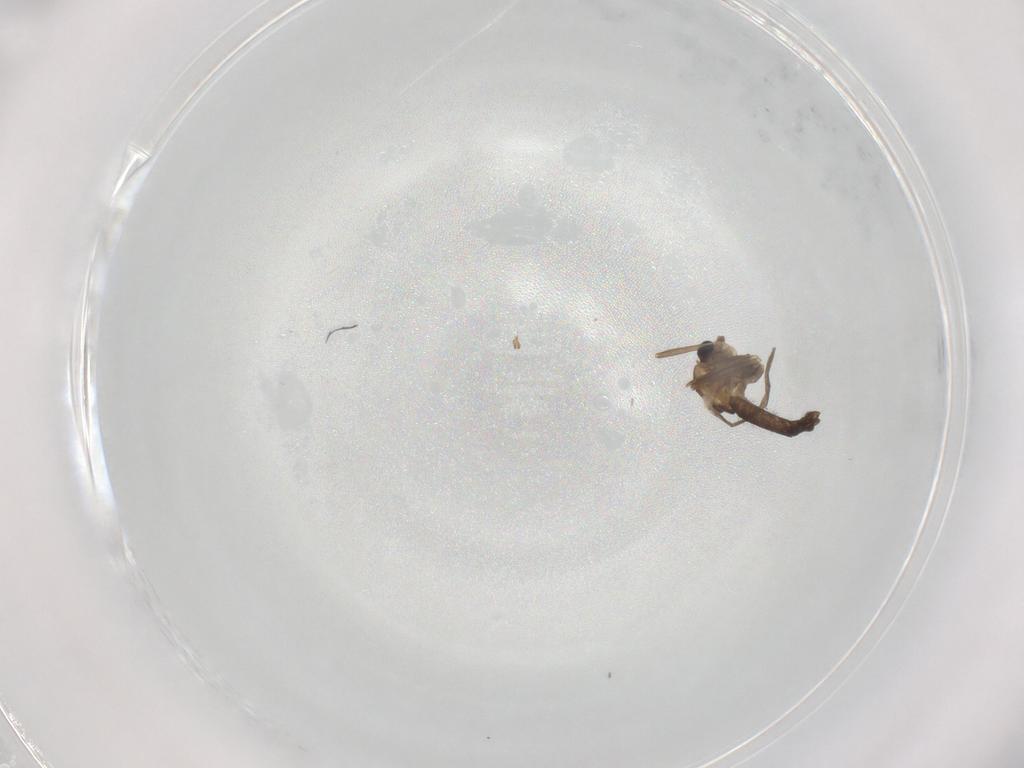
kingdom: Animalia
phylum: Arthropoda
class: Insecta
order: Diptera
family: Chironomidae
